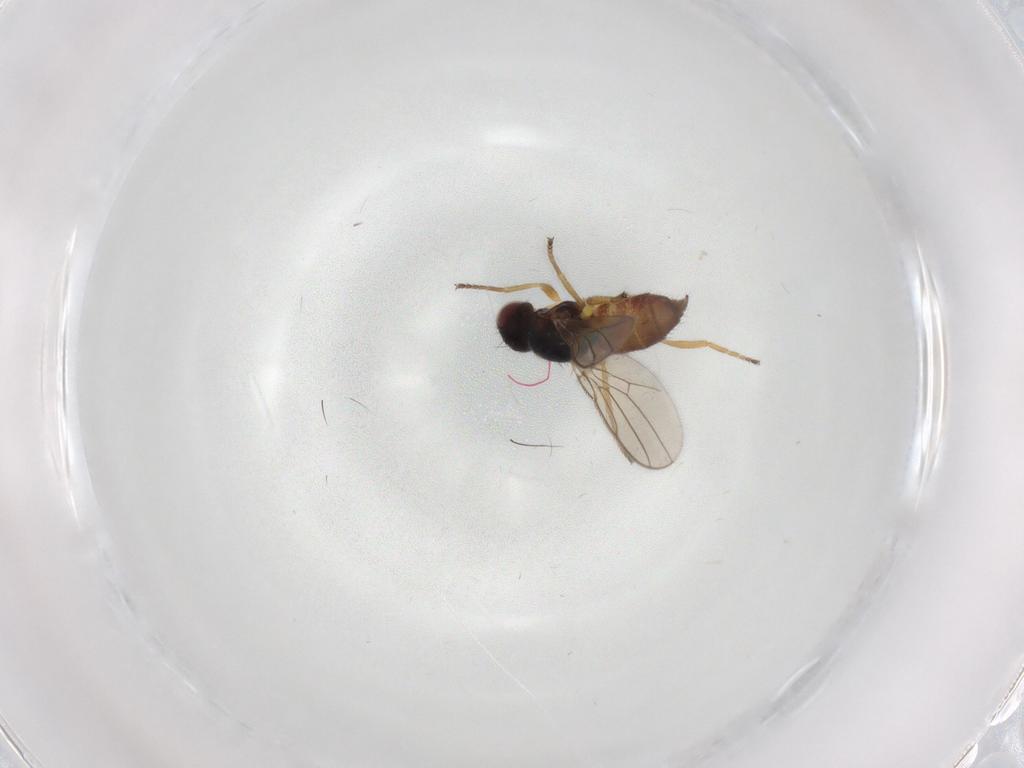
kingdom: Animalia
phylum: Arthropoda
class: Insecta
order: Diptera
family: Chloropidae
